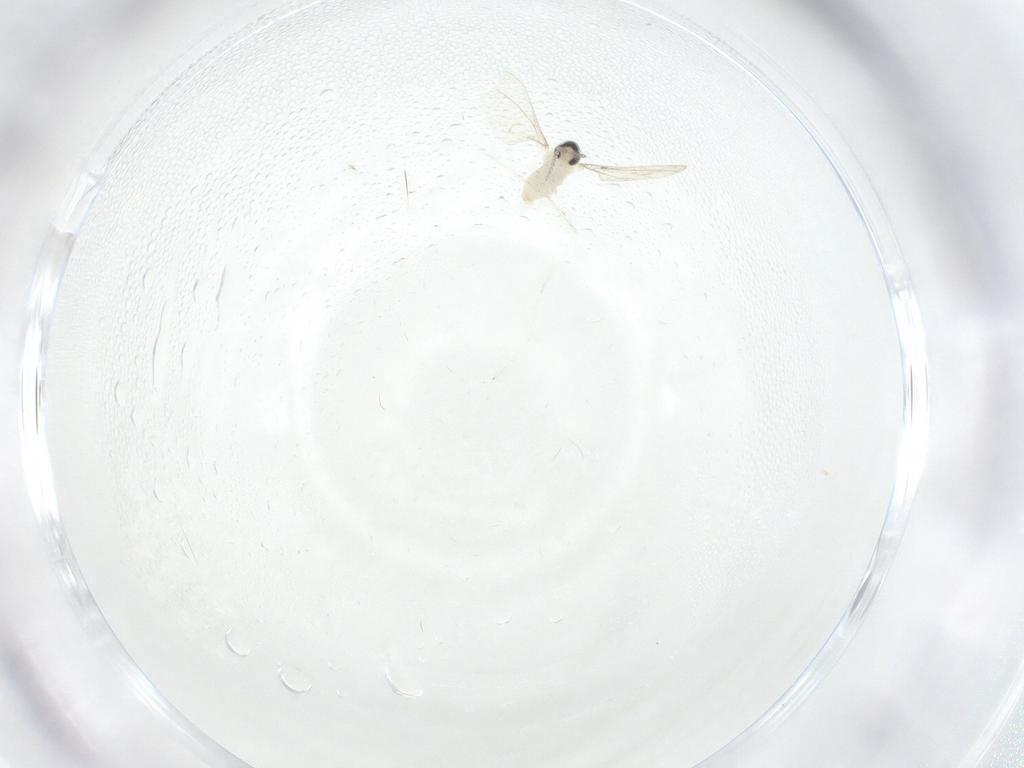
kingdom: Animalia
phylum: Arthropoda
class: Insecta
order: Diptera
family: Cecidomyiidae
